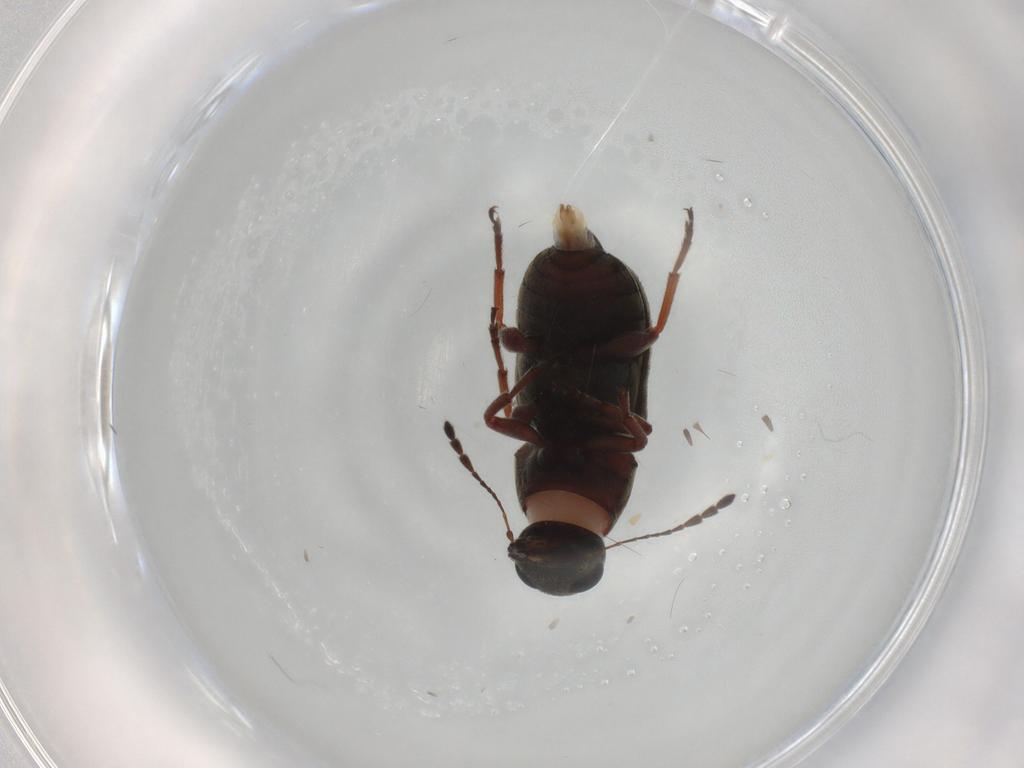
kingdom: Animalia
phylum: Arthropoda
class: Insecta
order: Coleoptera
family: Anthribidae
